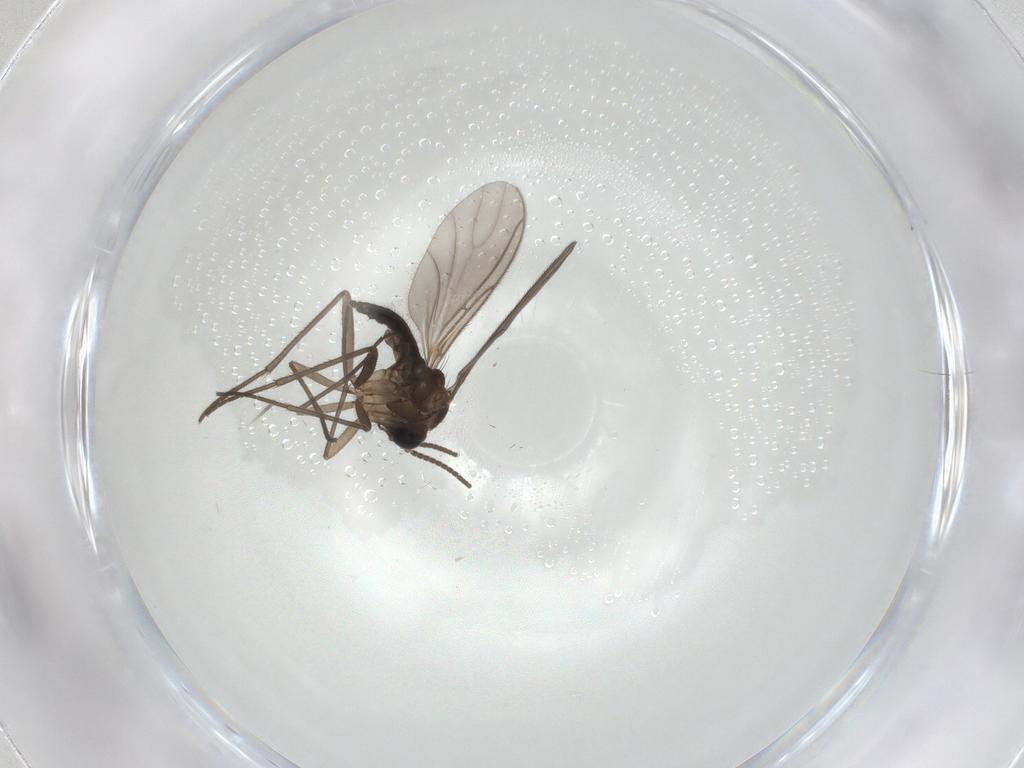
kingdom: Animalia
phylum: Arthropoda
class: Insecta
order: Diptera
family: Sciaridae
